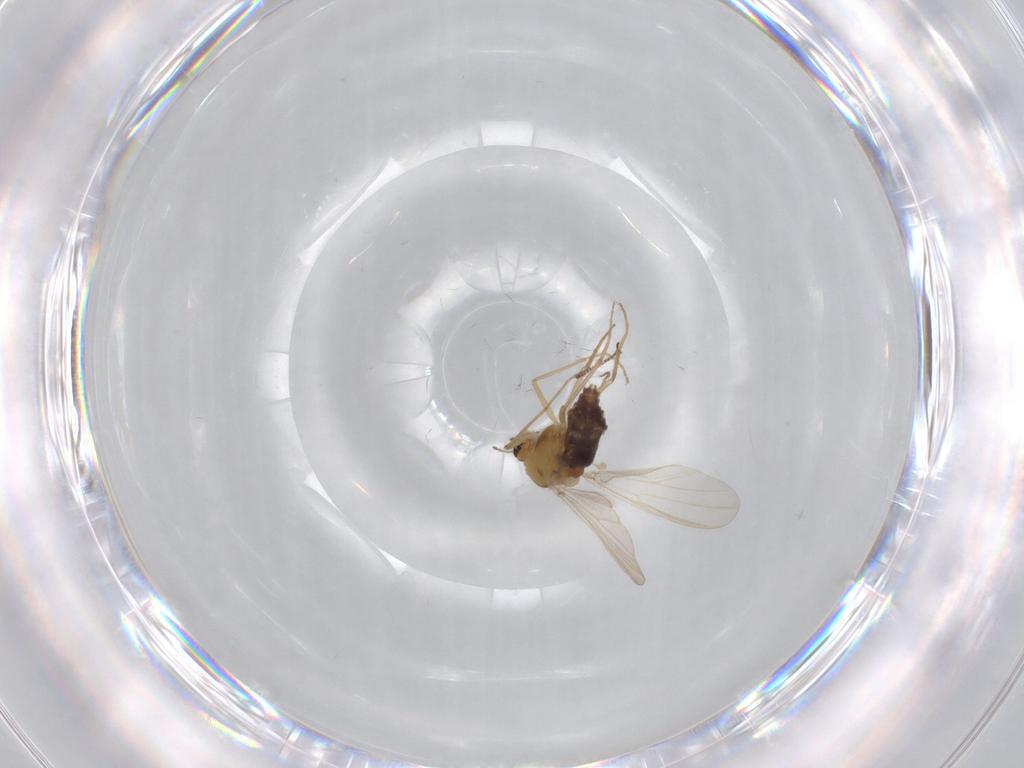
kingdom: Animalia
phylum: Arthropoda
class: Insecta
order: Diptera
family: Chironomidae
